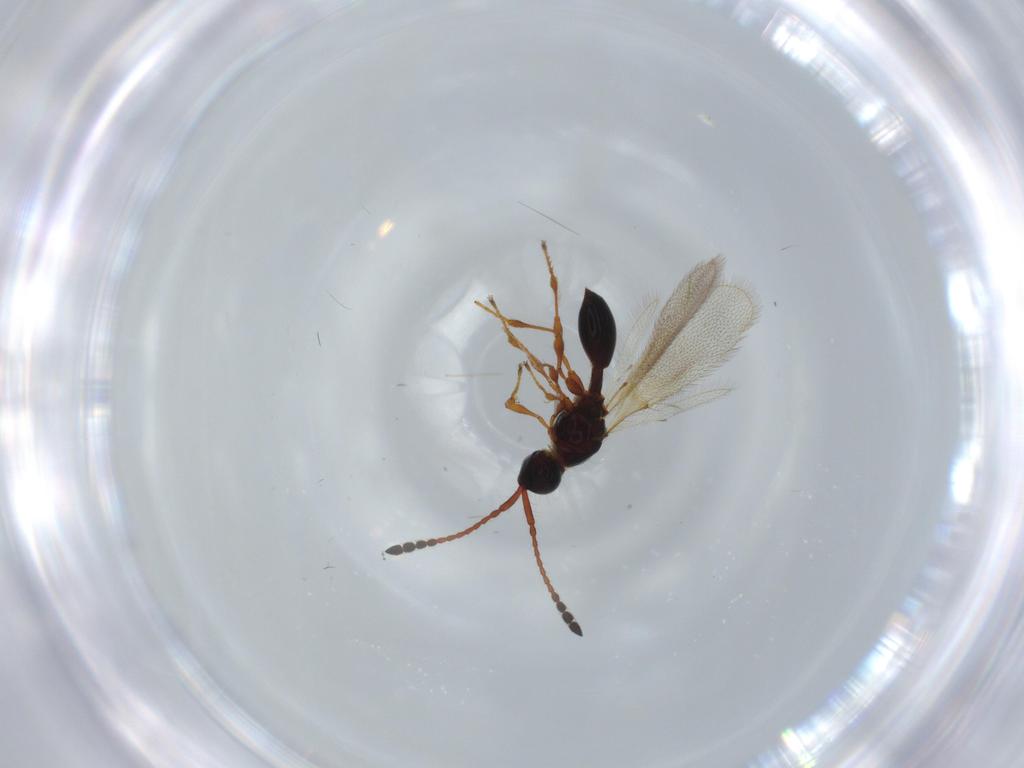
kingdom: Animalia
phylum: Arthropoda
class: Insecta
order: Hymenoptera
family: Diapriidae
